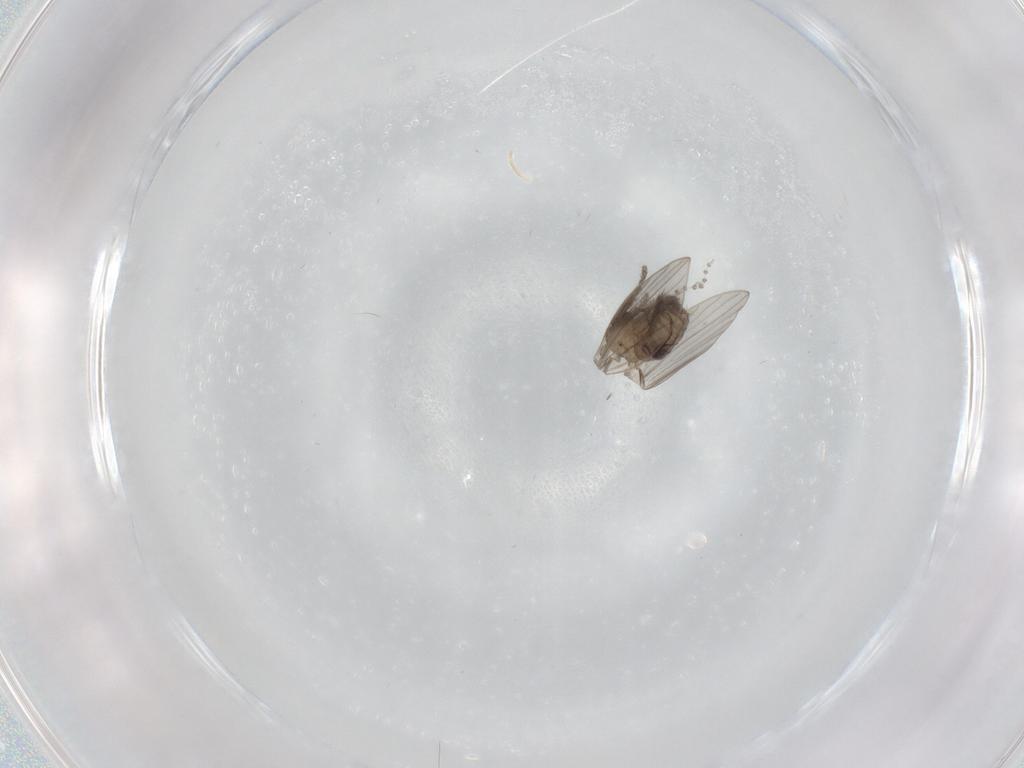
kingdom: Animalia
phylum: Arthropoda
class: Insecta
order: Diptera
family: Psychodidae
